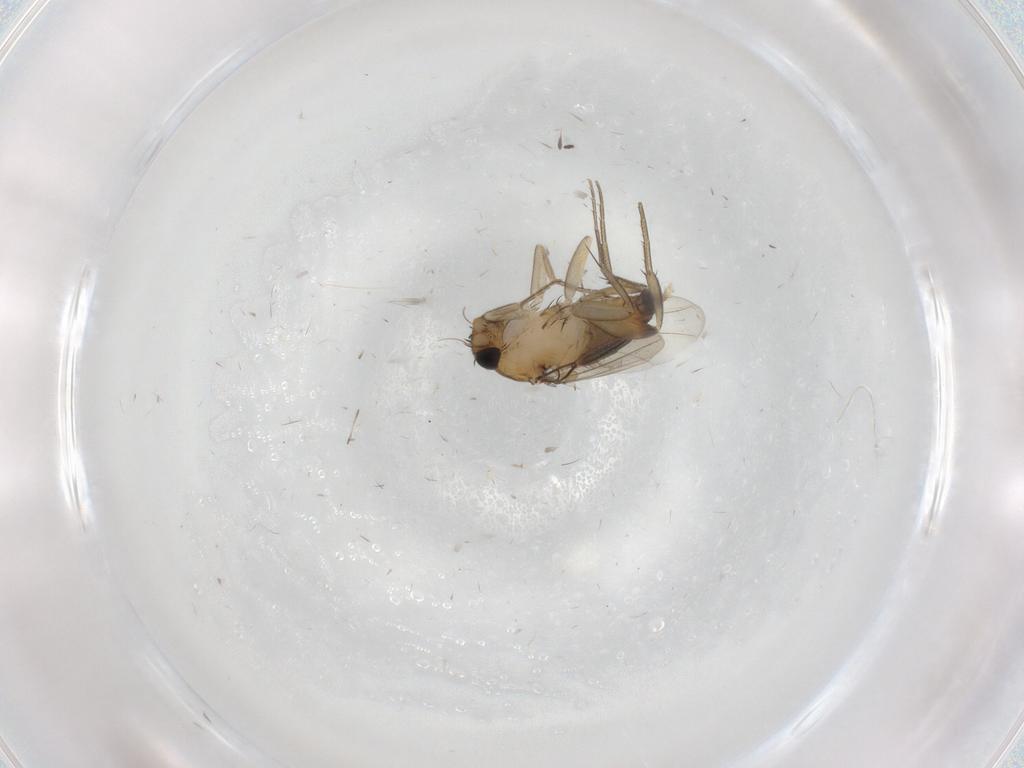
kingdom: Animalia
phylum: Arthropoda
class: Insecta
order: Diptera
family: Phoridae
